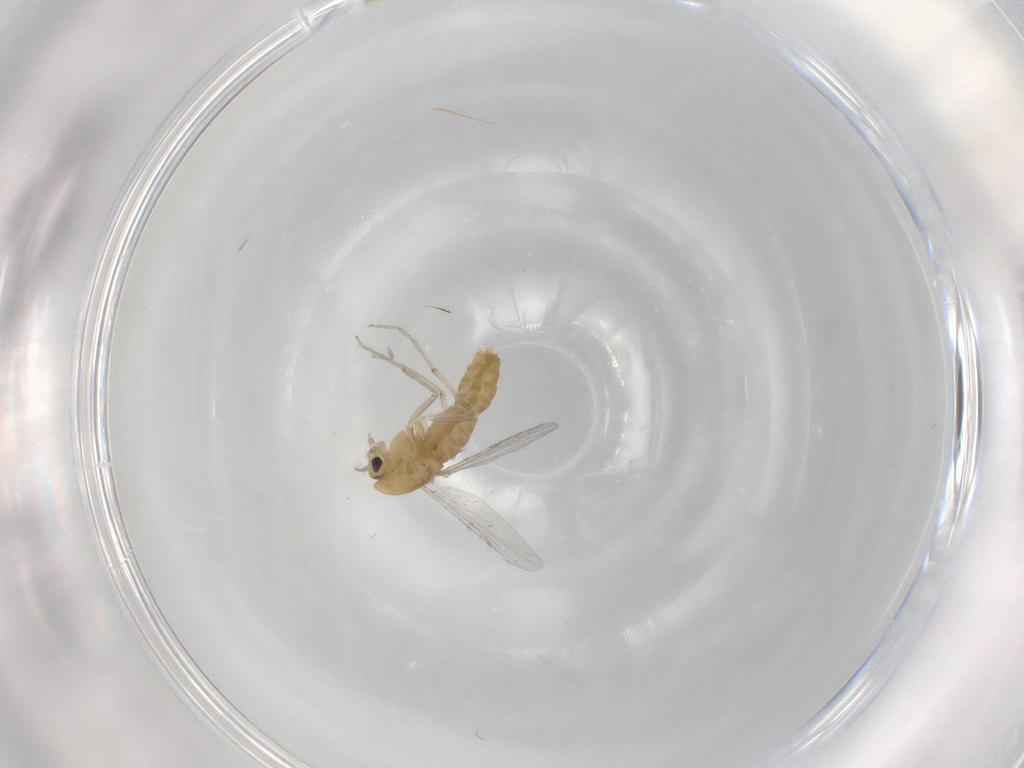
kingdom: Animalia
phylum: Arthropoda
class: Insecta
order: Diptera
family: Chironomidae
